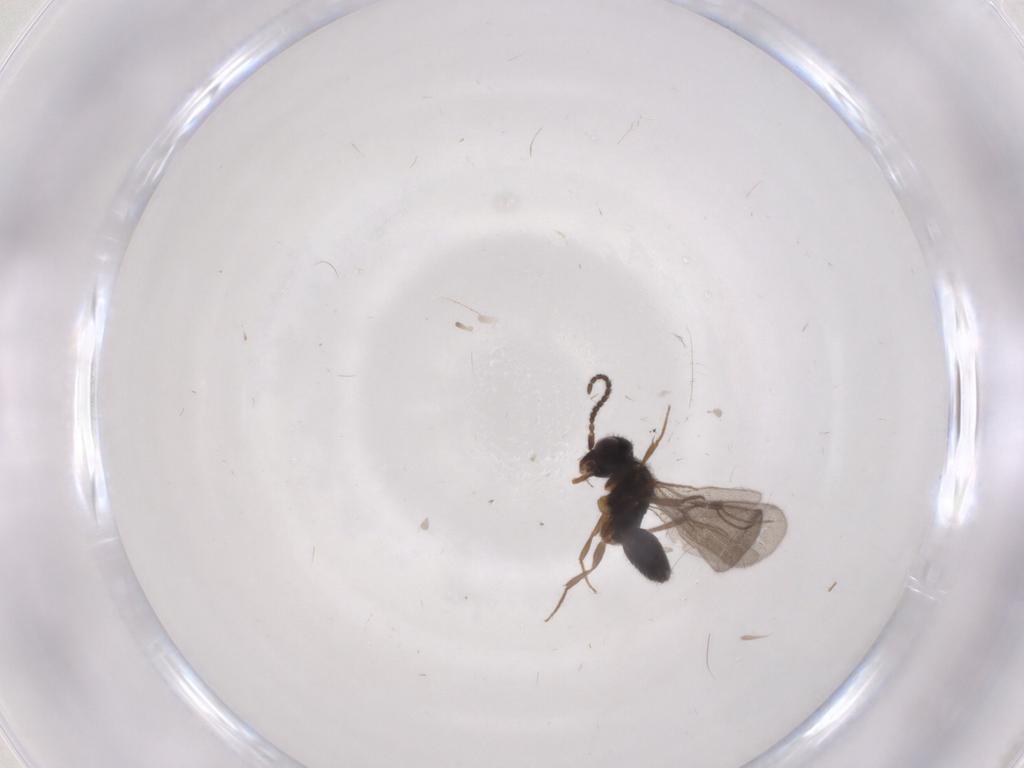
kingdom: Animalia
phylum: Arthropoda
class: Insecta
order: Hymenoptera
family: Bethylidae
